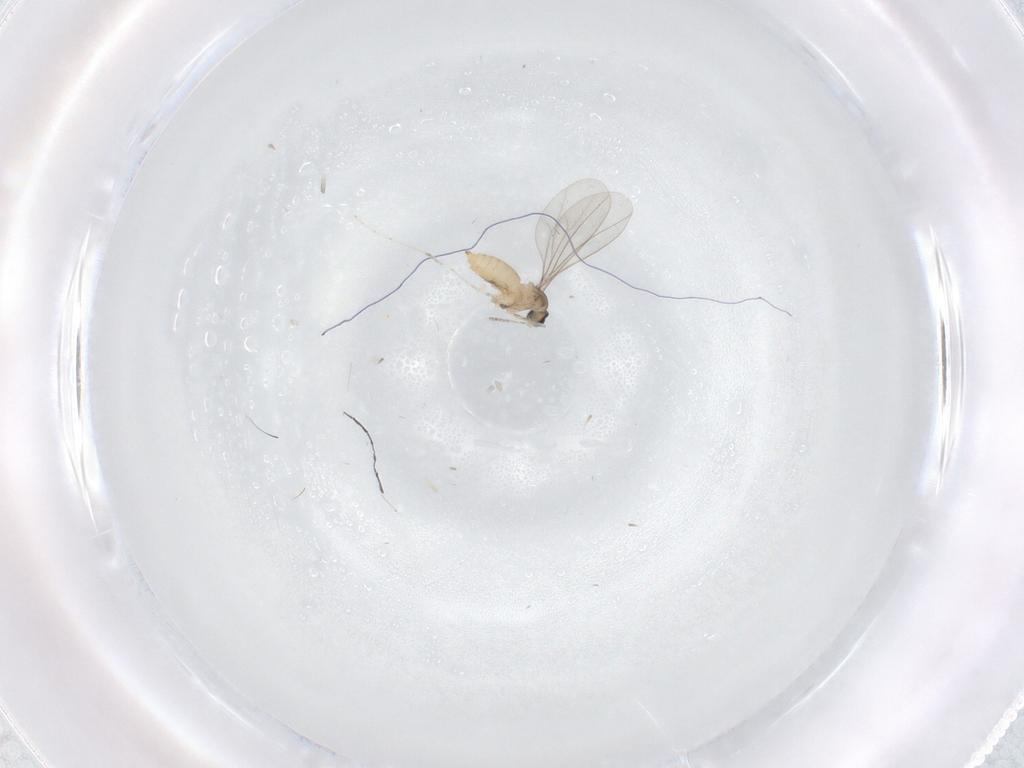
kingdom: Animalia
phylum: Arthropoda
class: Insecta
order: Diptera
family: Cecidomyiidae
